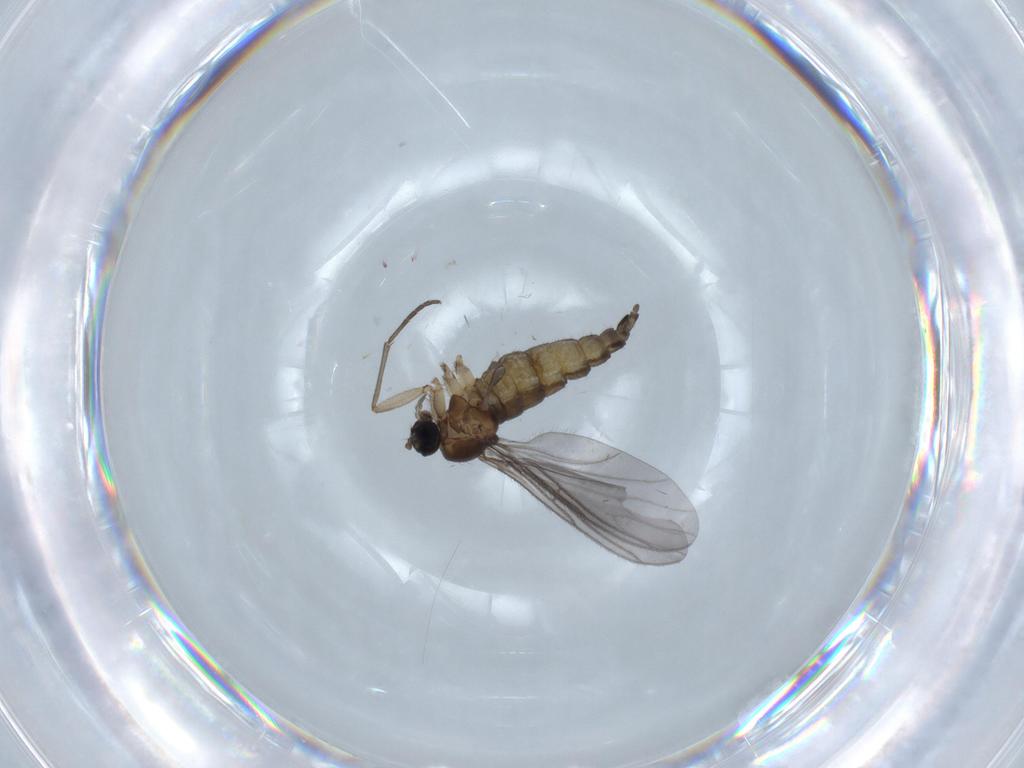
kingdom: Animalia
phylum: Arthropoda
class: Insecta
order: Diptera
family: Sciaridae
